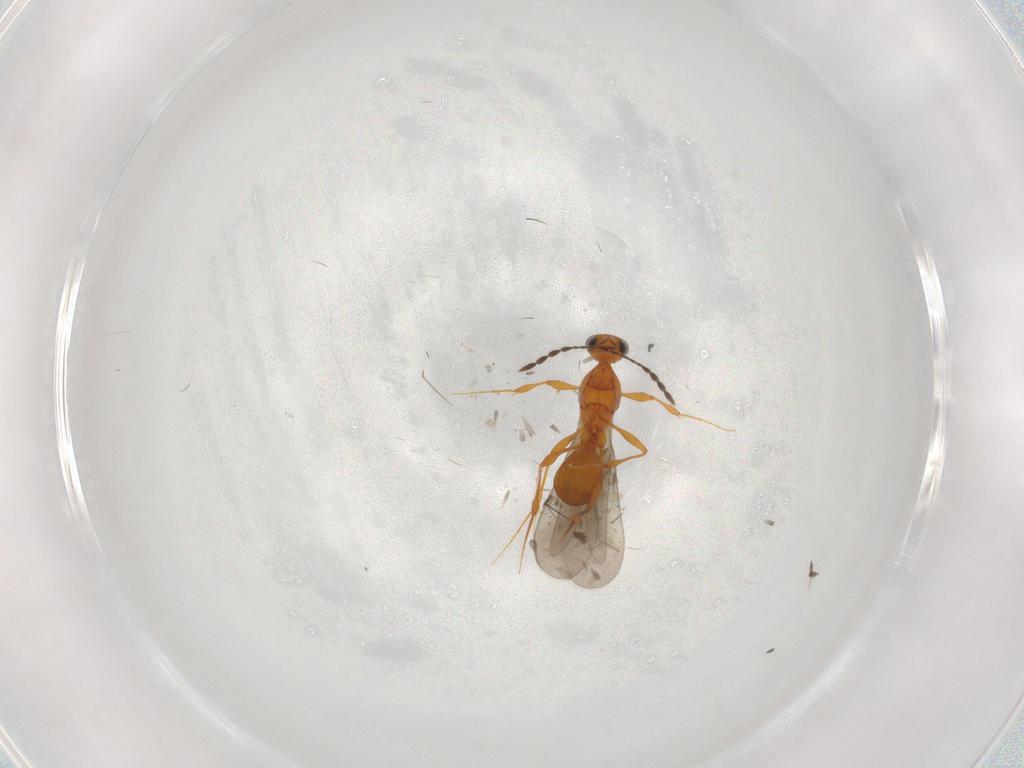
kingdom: Animalia
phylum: Arthropoda
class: Insecta
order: Hymenoptera
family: Platygastridae
